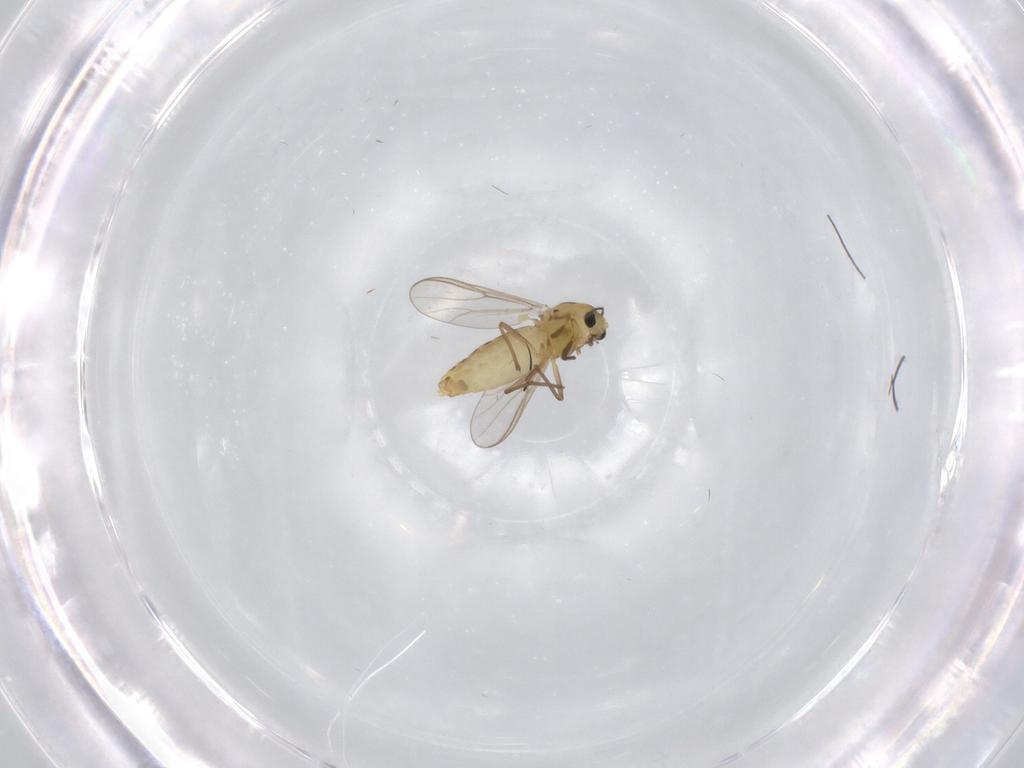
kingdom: Animalia
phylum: Arthropoda
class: Insecta
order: Diptera
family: Chironomidae
